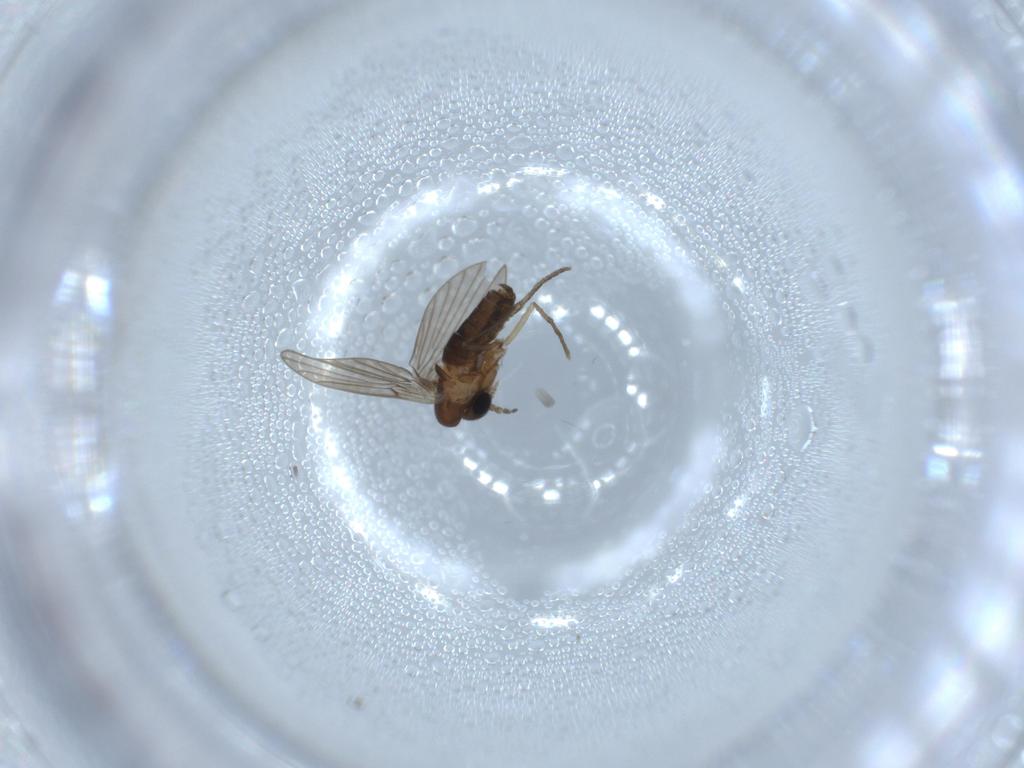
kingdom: Animalia
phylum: Arthropoda
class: Insecta
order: Diptera
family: Psychodidae
